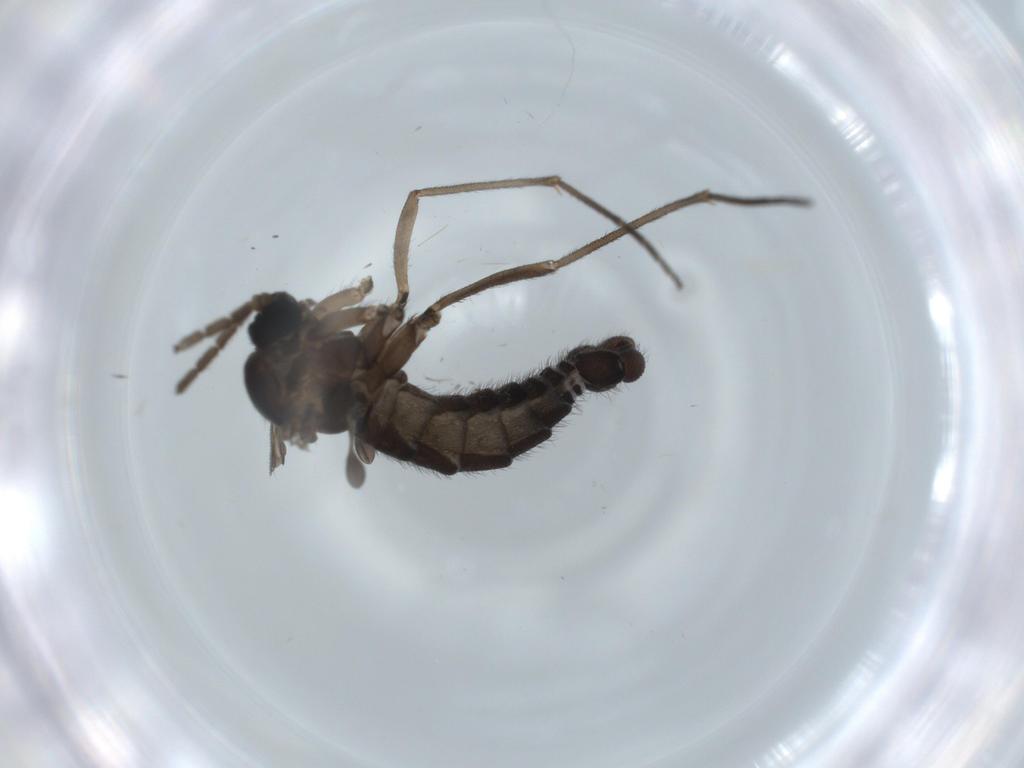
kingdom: Animalia
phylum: Arthropoda
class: Insecta
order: Diptera
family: Sciaridae
